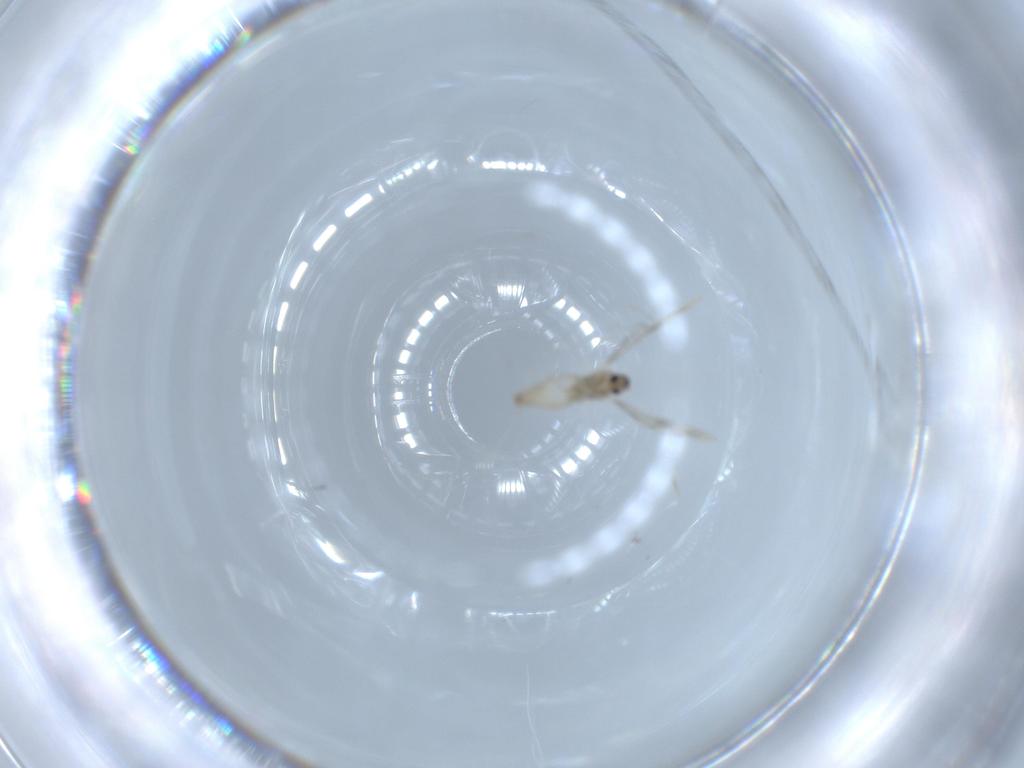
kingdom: Animalia
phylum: Arthropoda
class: Insecta
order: Diptera
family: Cecidomyiidae
